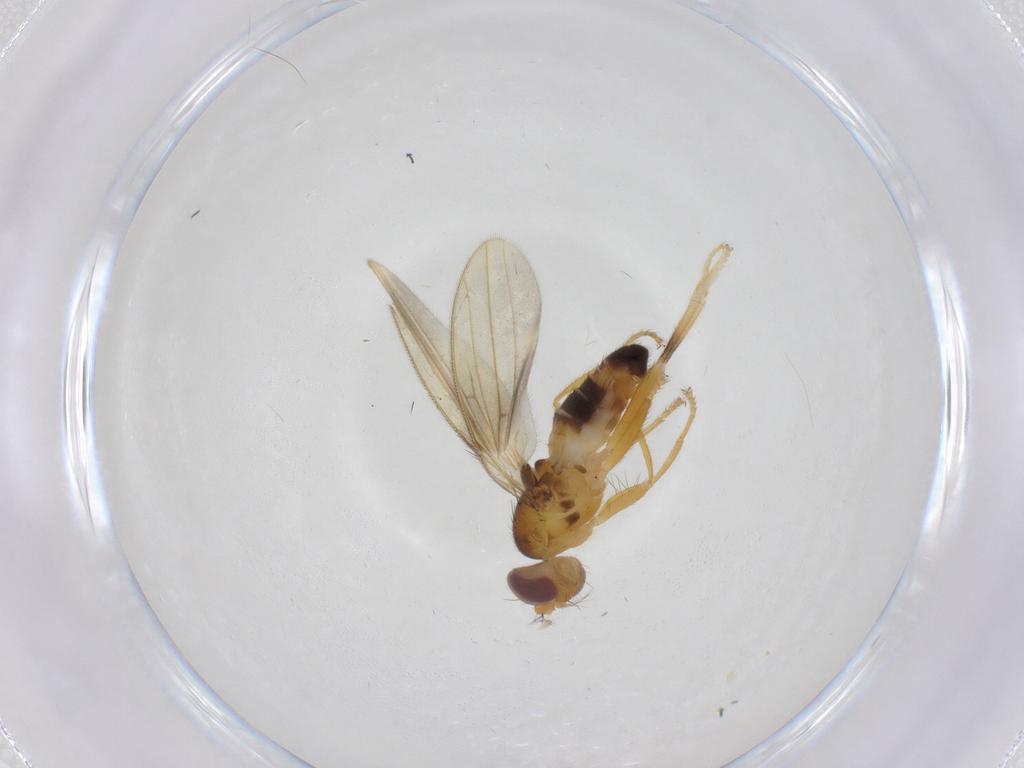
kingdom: Animalia
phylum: Arthropoda
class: Insecta
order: Diptera
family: Periscelididae
